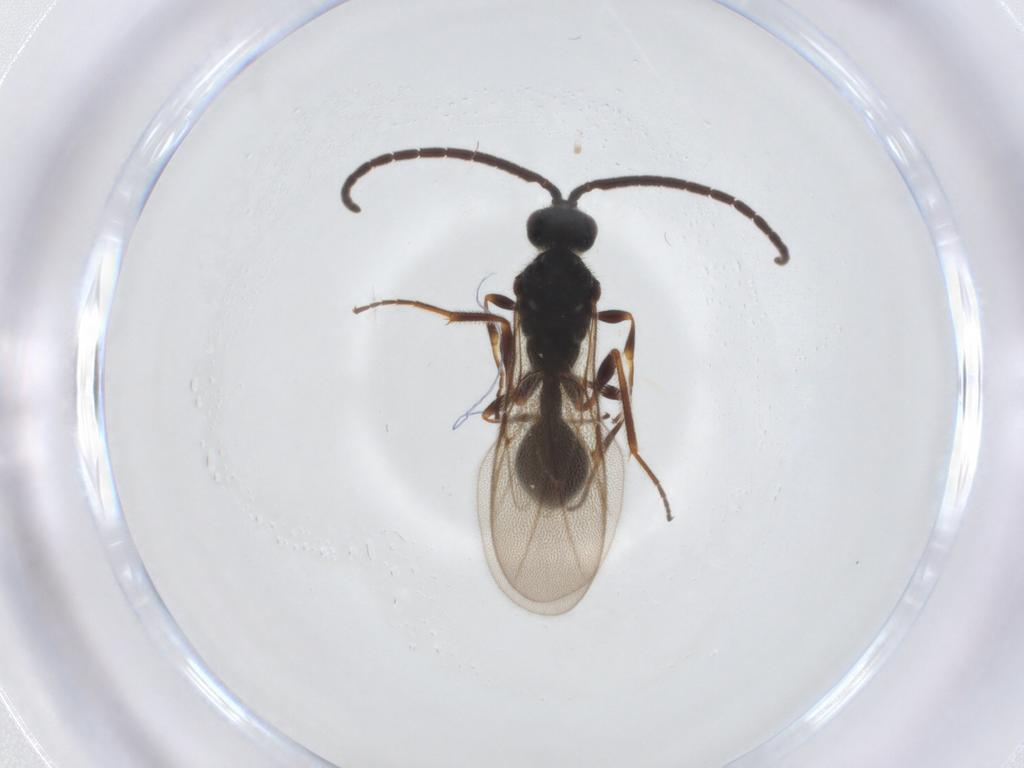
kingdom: Animalia
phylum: Arthropoda
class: Insecta
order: Hymenoptera
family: Diapriidae
